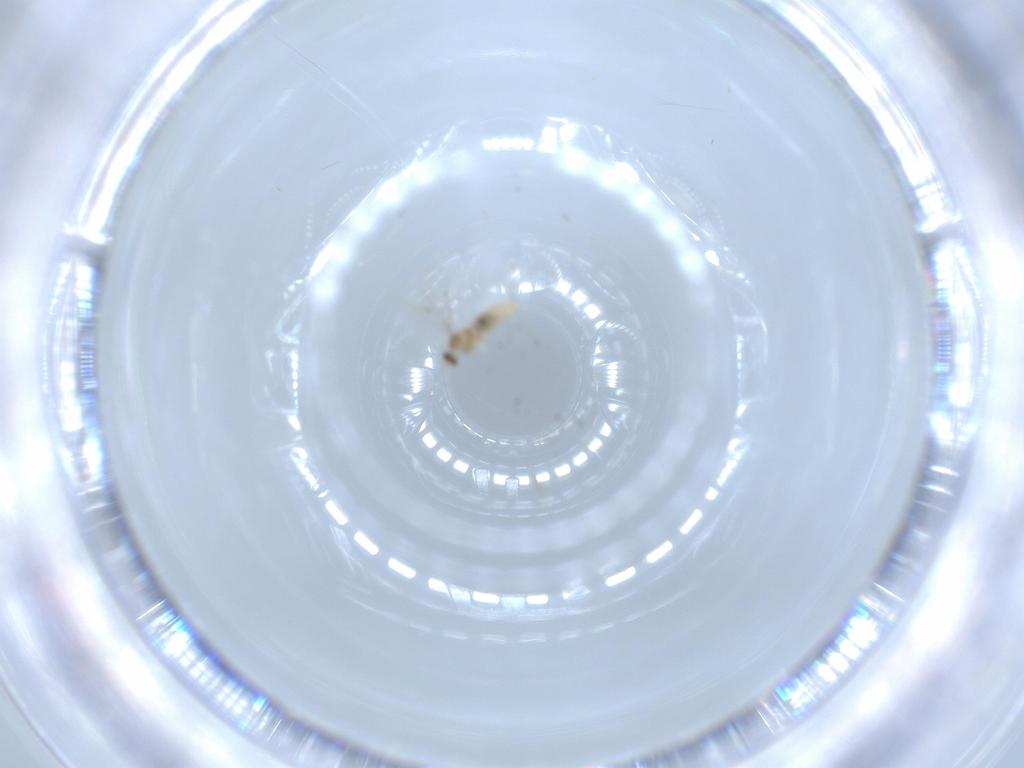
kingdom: Animalia
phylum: Arthropoda
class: Insecta
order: Diptera
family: Cecidomyiidae
